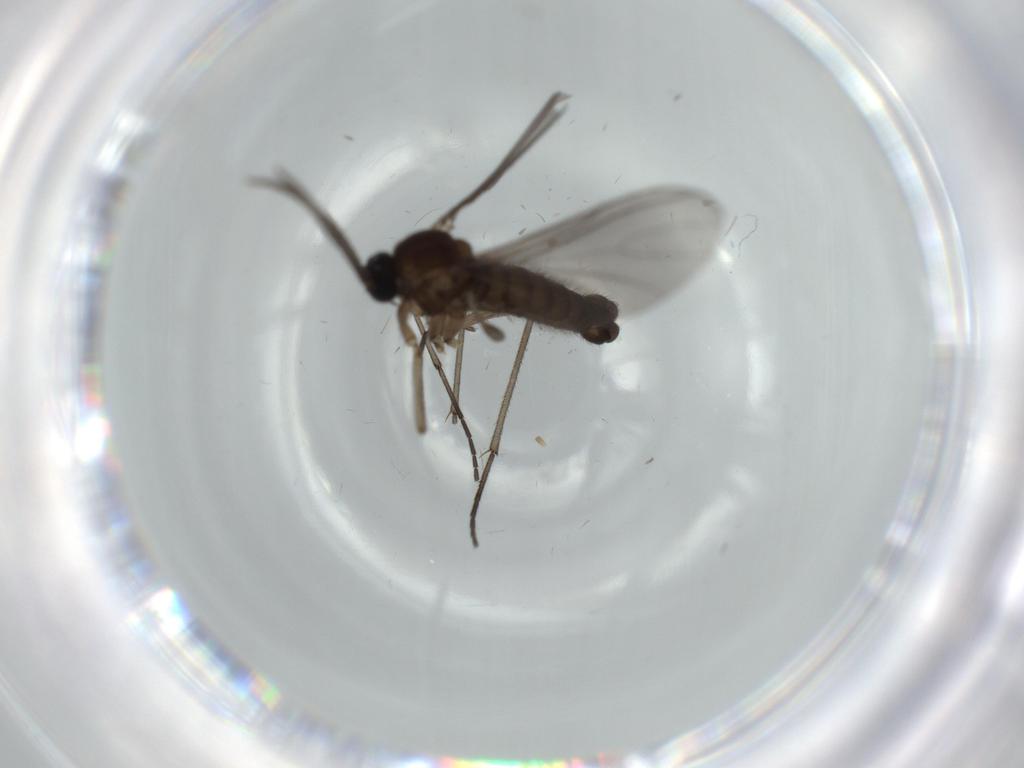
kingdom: Animalia
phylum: Arthropoda
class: Insecta
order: Diptera
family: Sciaridae
